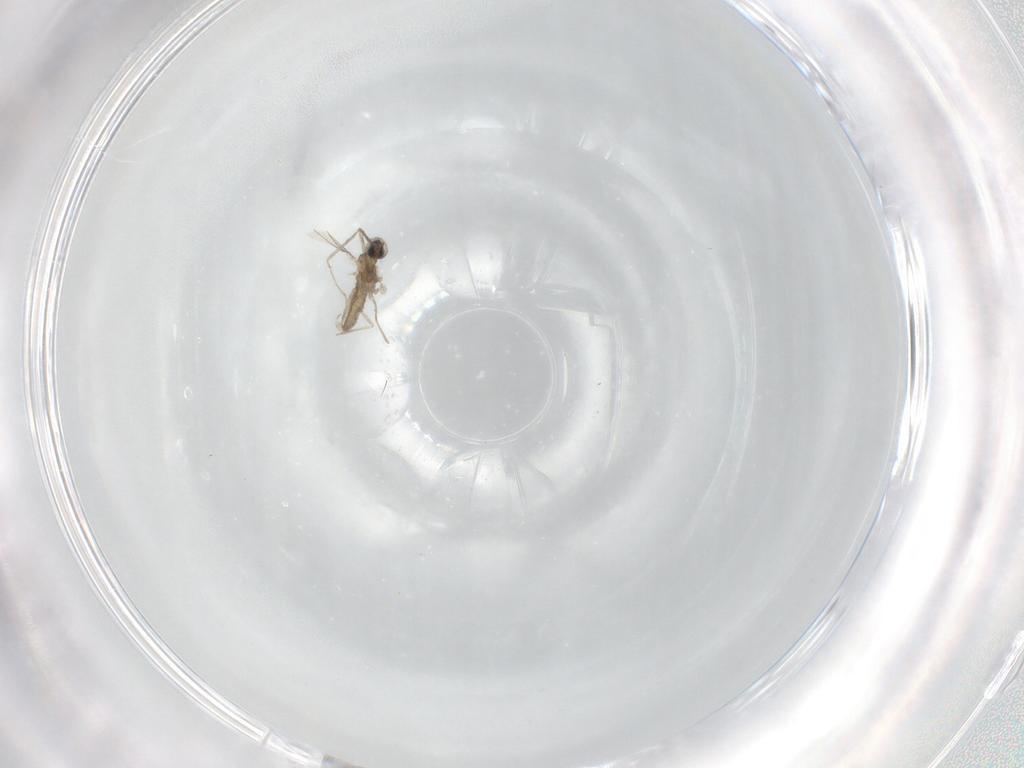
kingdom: Animalia
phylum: Arthropoda
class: Insecta
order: Diptera
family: Cecidomyiidae
